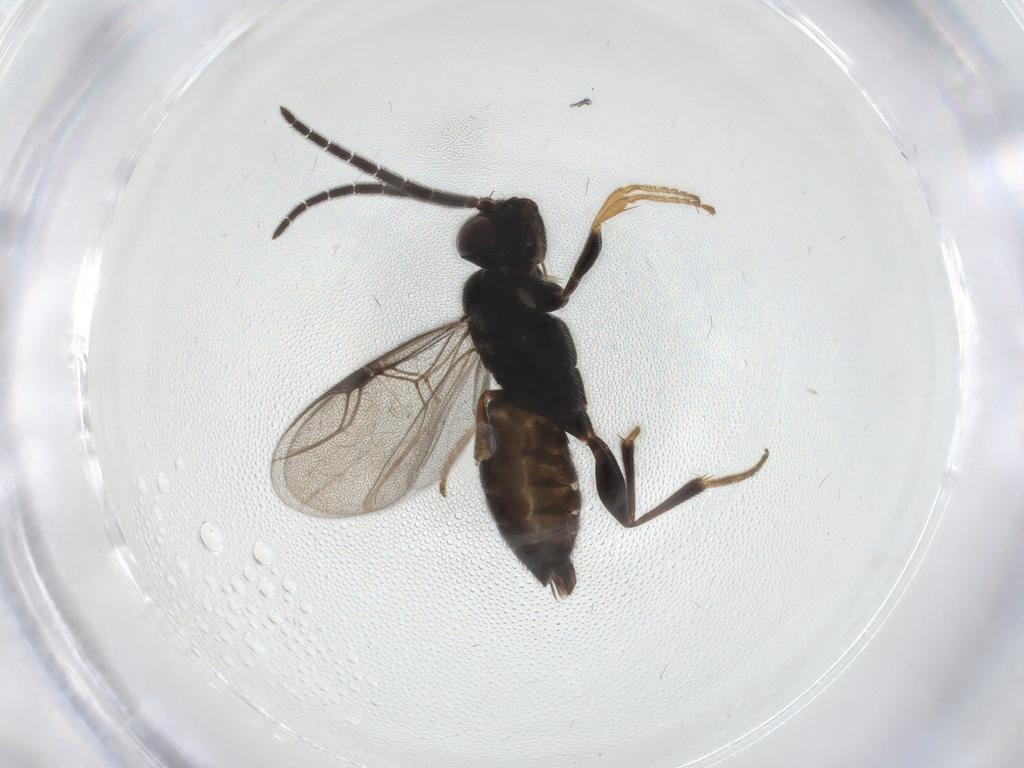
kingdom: Animalia
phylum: Arthropoda
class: Insecta
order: Hymenoptera
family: Dryinidae
